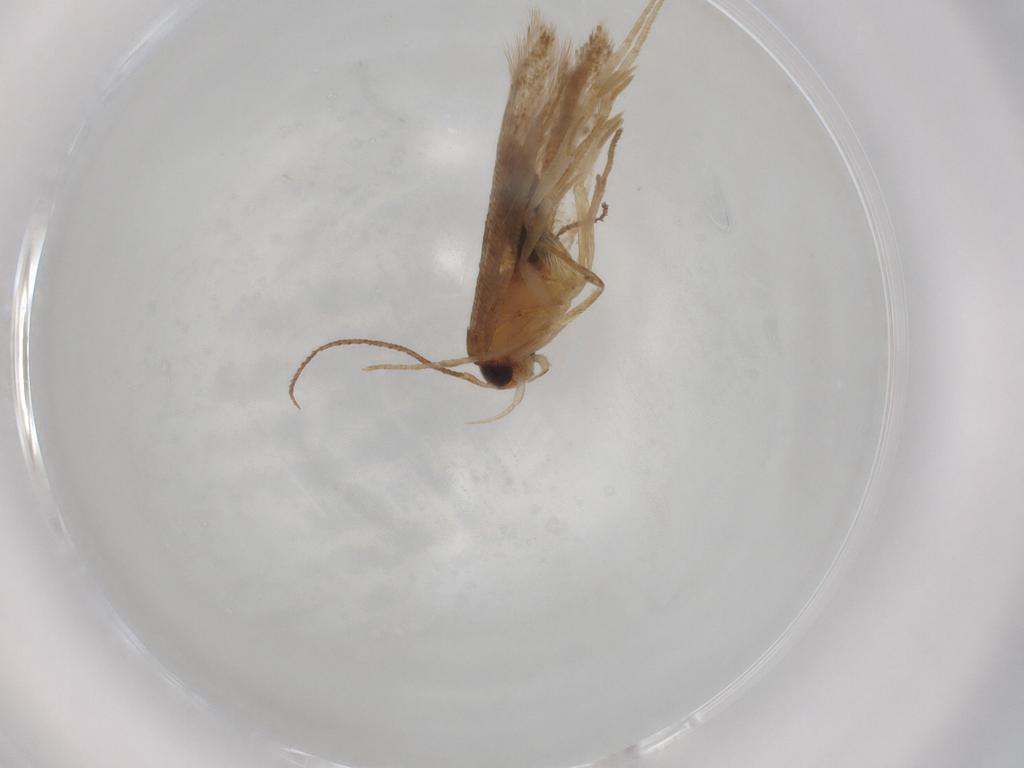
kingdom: Animalia
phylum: Arthropoda
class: Insecta
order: Lepidoptera
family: Gelechiidae
